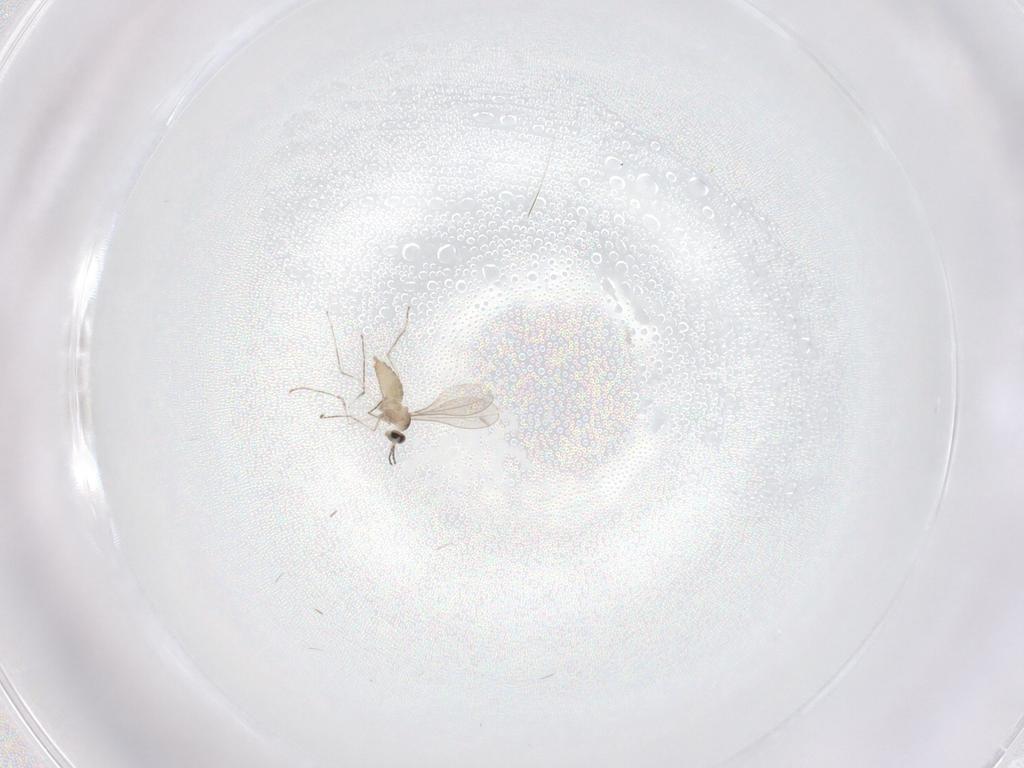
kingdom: Animalia
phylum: Arthropoda
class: Insecta
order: Diptera
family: Cecidomyiidae
